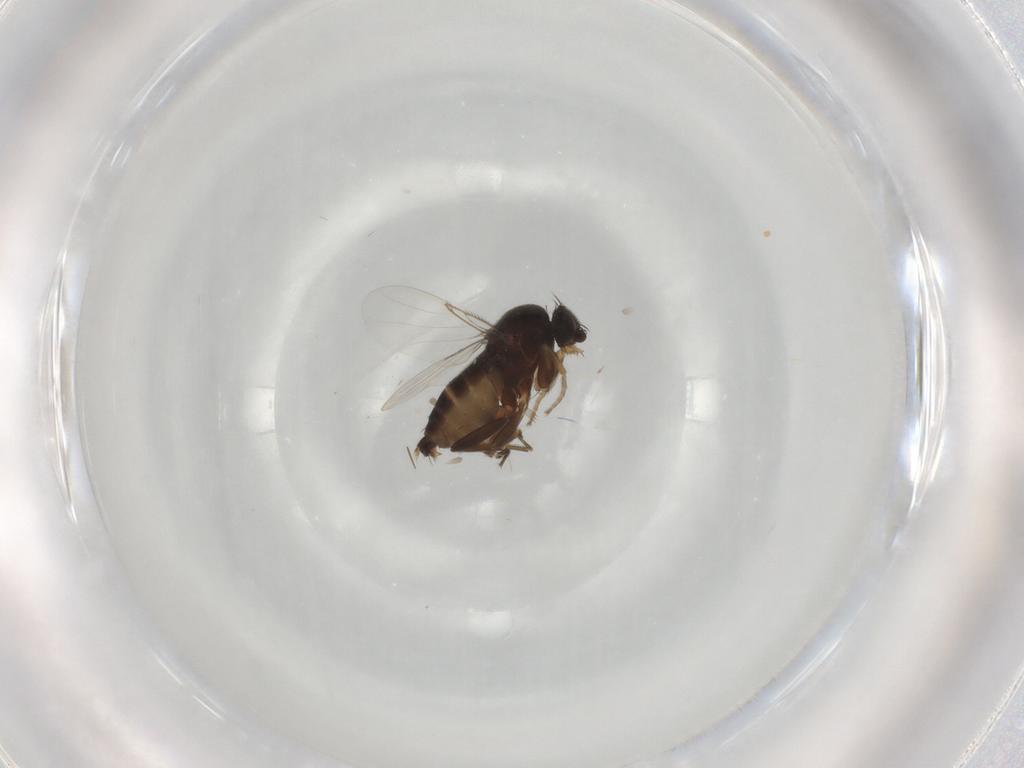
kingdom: Animalia
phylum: Arthropoda
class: Insecta
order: Diptera
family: Phoridae
